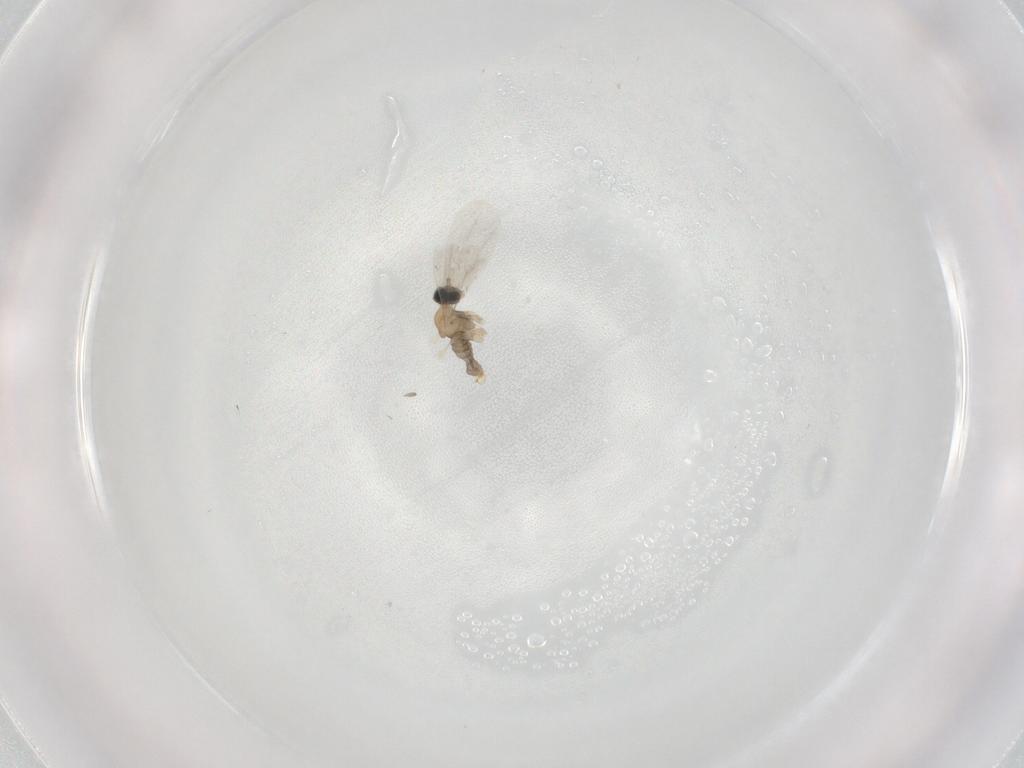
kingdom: Animalia
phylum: Arthropoda
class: Insecta
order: Diptera
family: Cecidomyiidae
